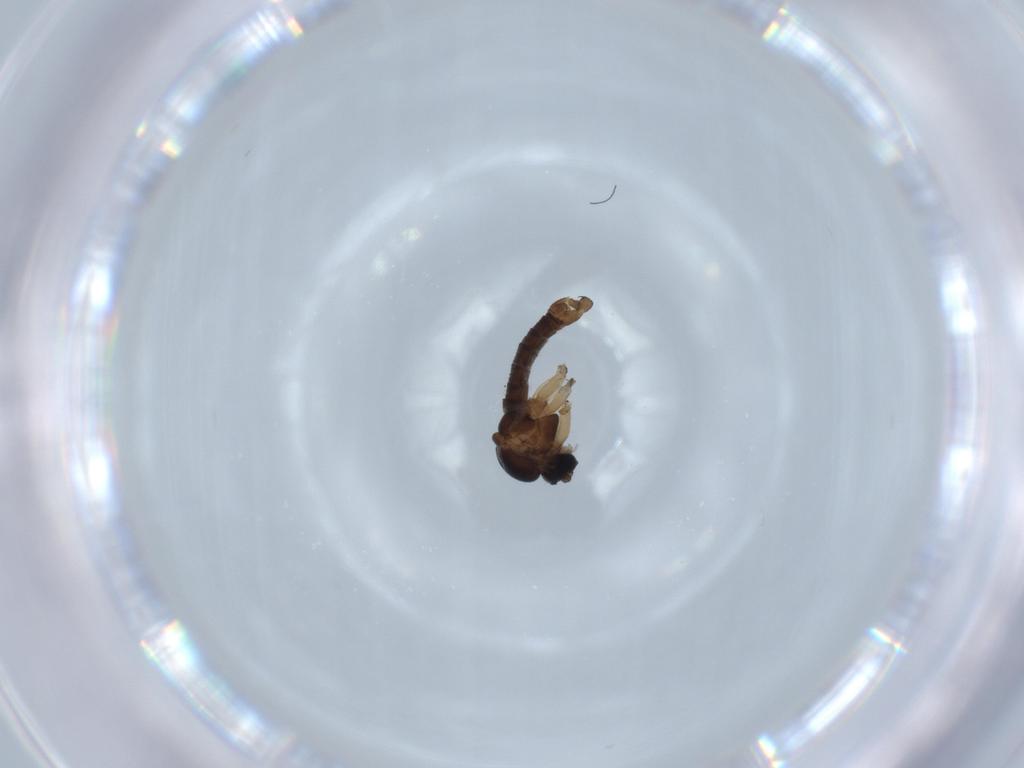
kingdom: Animalia
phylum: Arthropoda
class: Insecta
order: Diptera
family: Sciaridae
